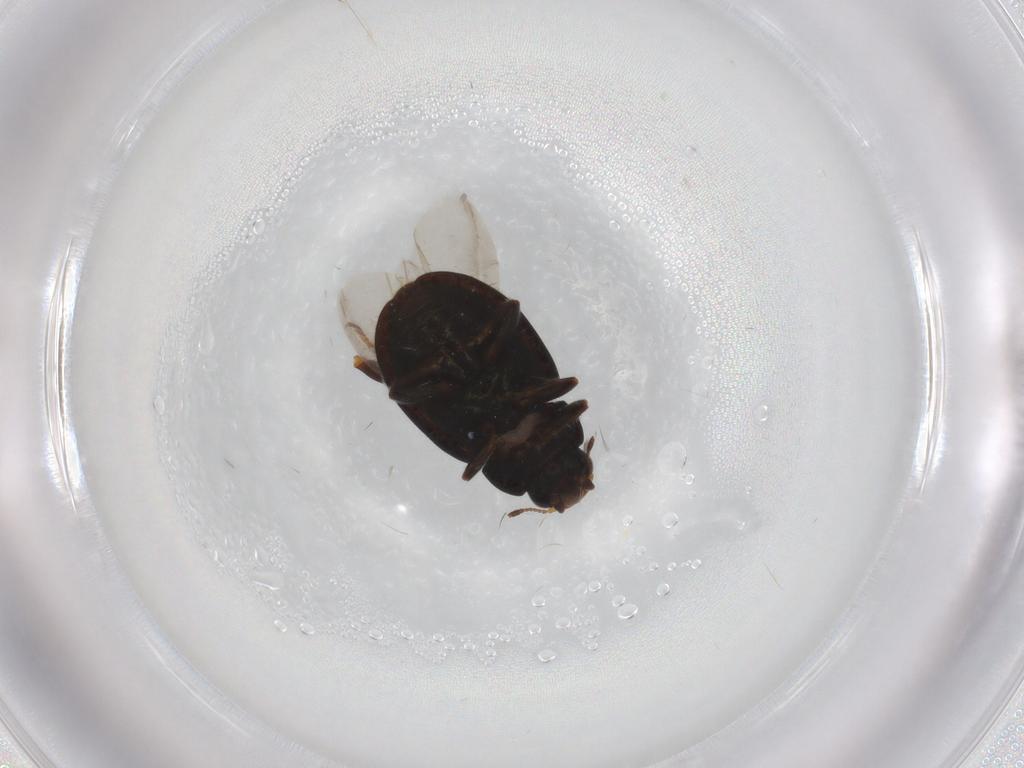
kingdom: Animalia
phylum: Arthropoda
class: Insecta
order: Coleoptera
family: Coccinellidae
